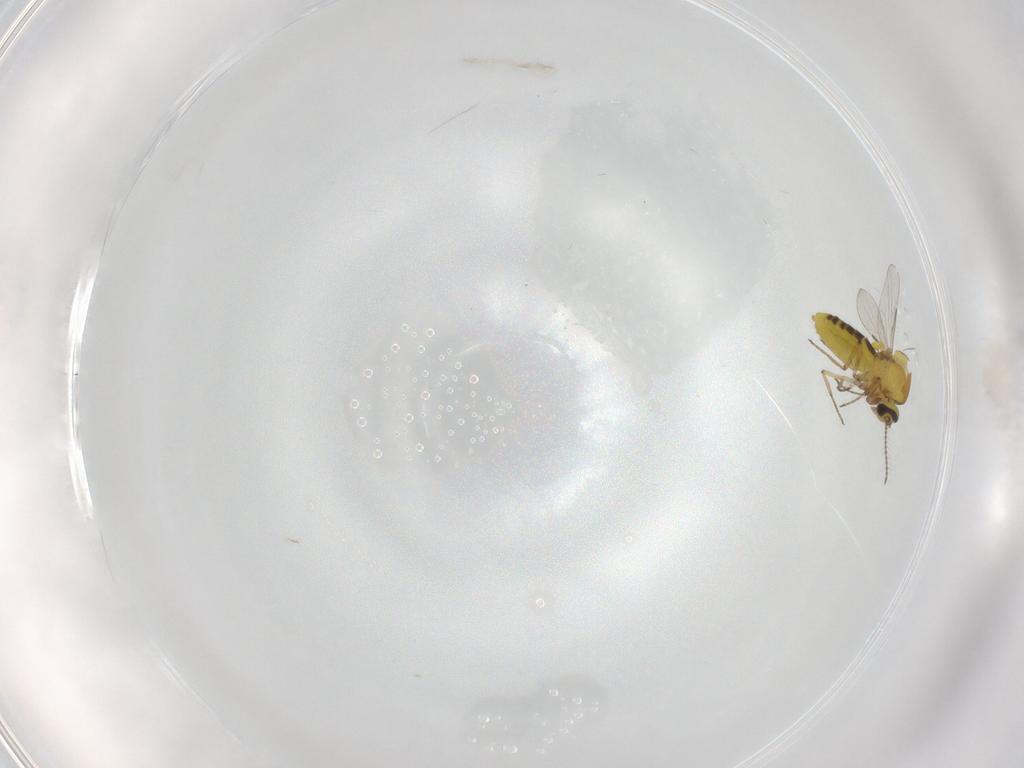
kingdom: Animalia
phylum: Arthropoda
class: Insecta
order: Diptera
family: Ceratopogonidae
